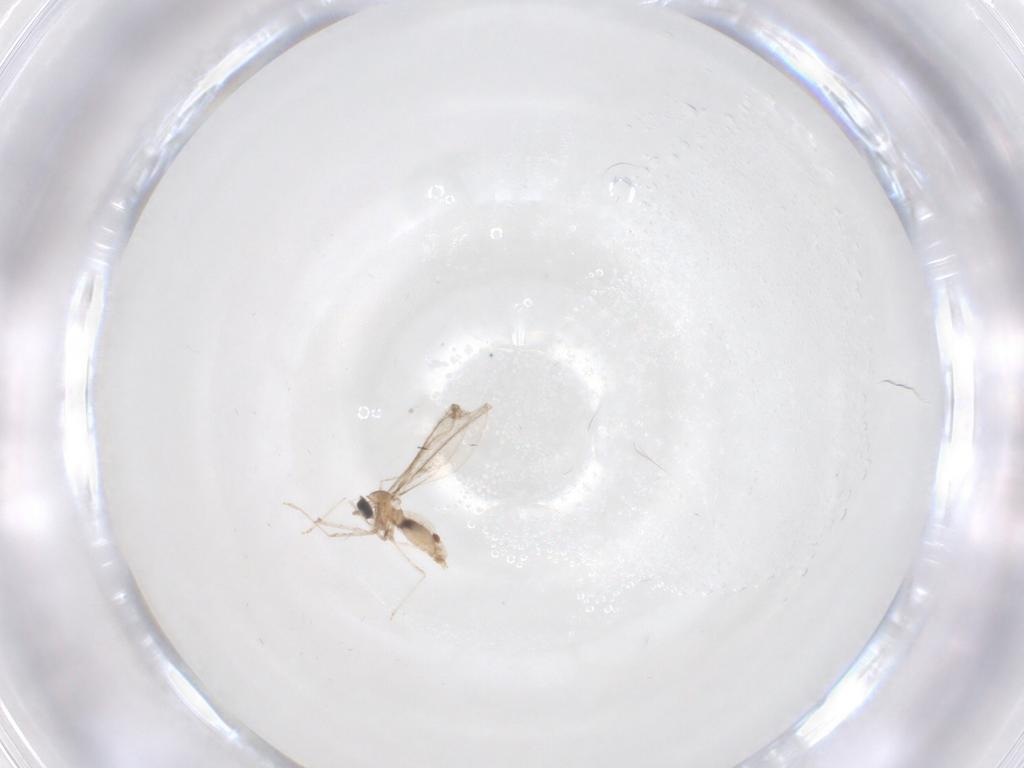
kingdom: Animalia
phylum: Arthropoda
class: Insecta
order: Diptera
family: Cecidomyiidae
